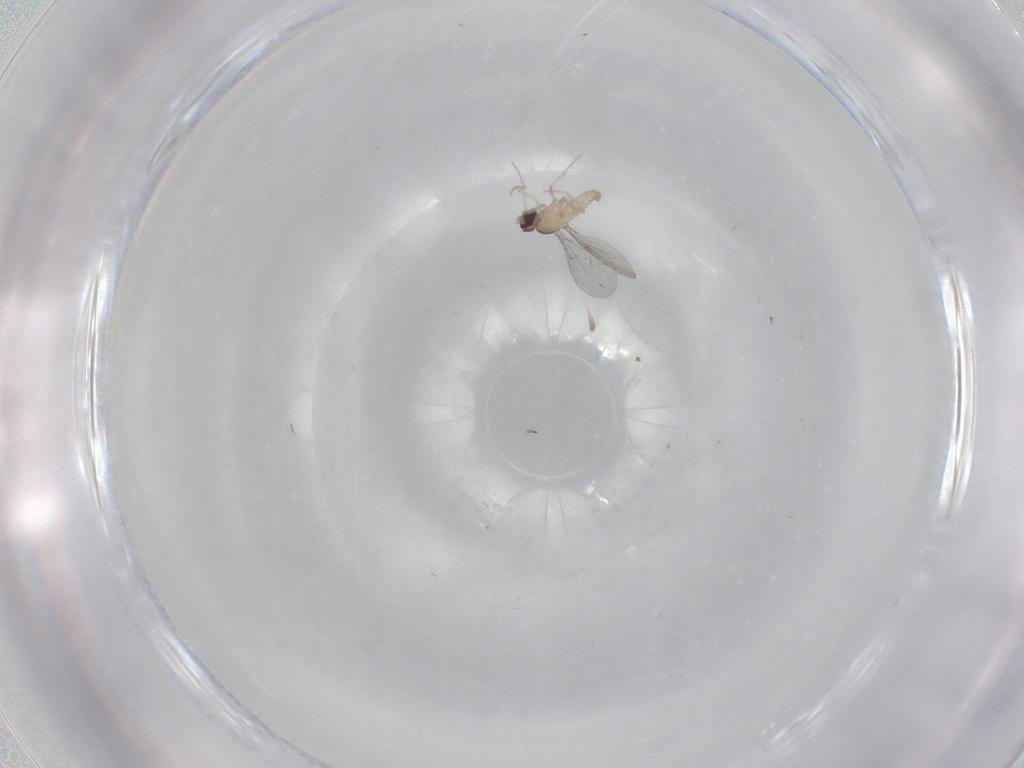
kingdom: Animalia
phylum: Arthropoda
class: Insecta
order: Diptera
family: Cecidomyiidae
